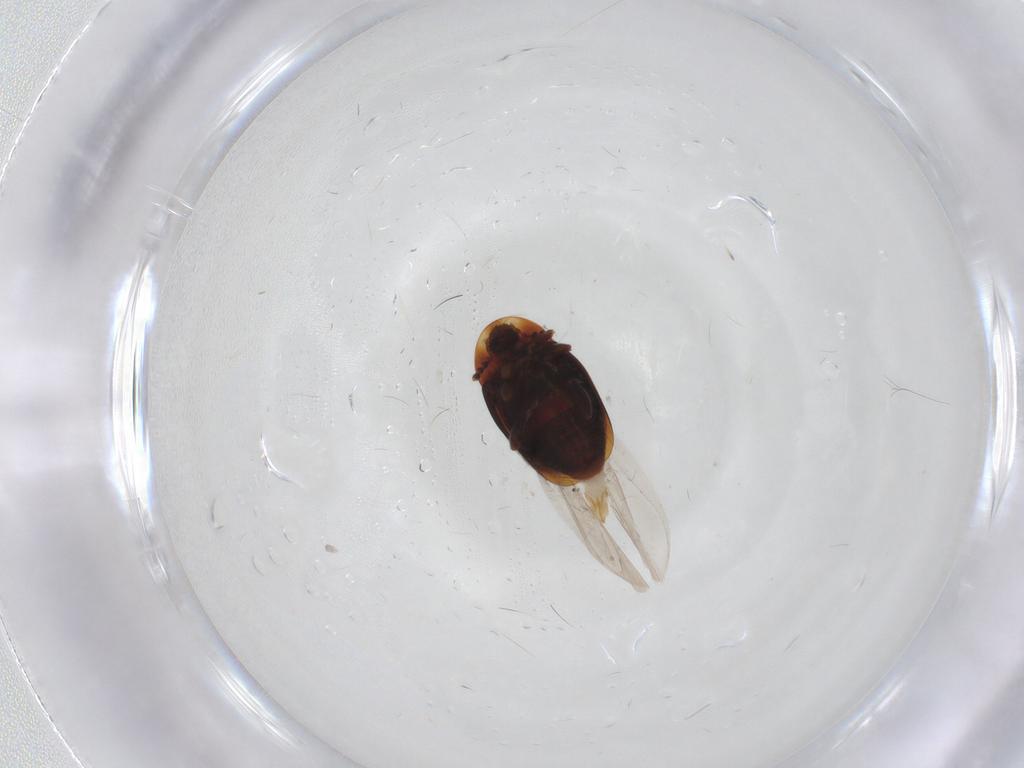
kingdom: Animalia
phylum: Arthropoda
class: Insecta
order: Coleoptera
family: Corylophidae
